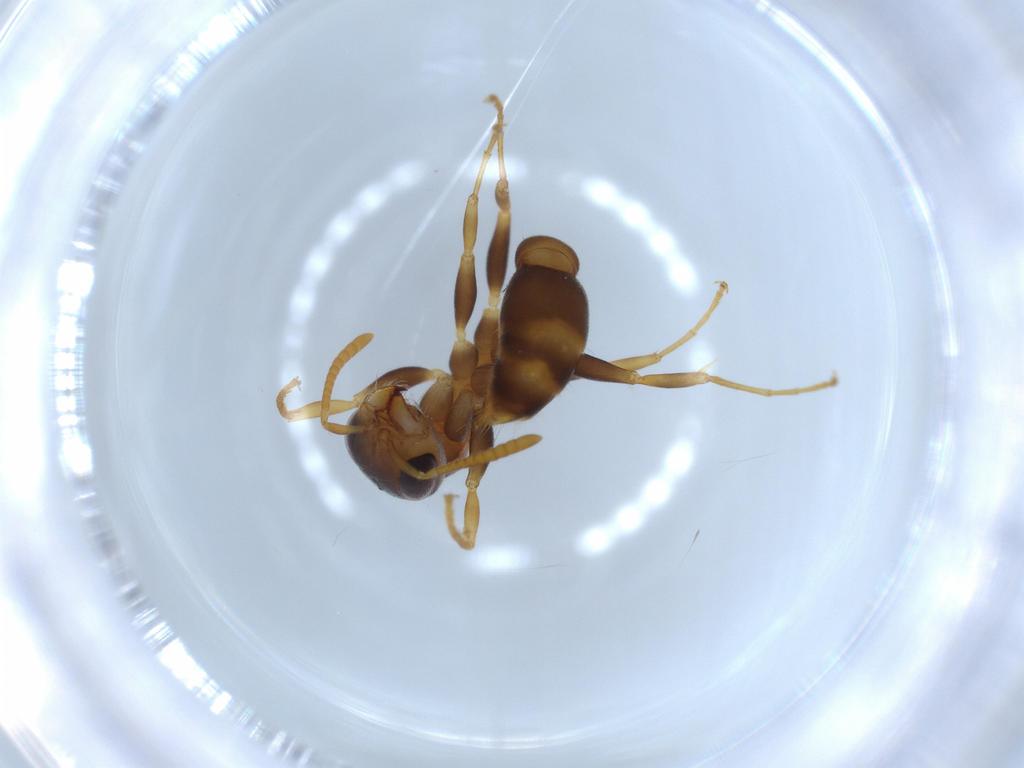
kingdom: Animalia
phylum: Arthropoda
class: Insecta
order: Hymenoptera
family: Formicidae
